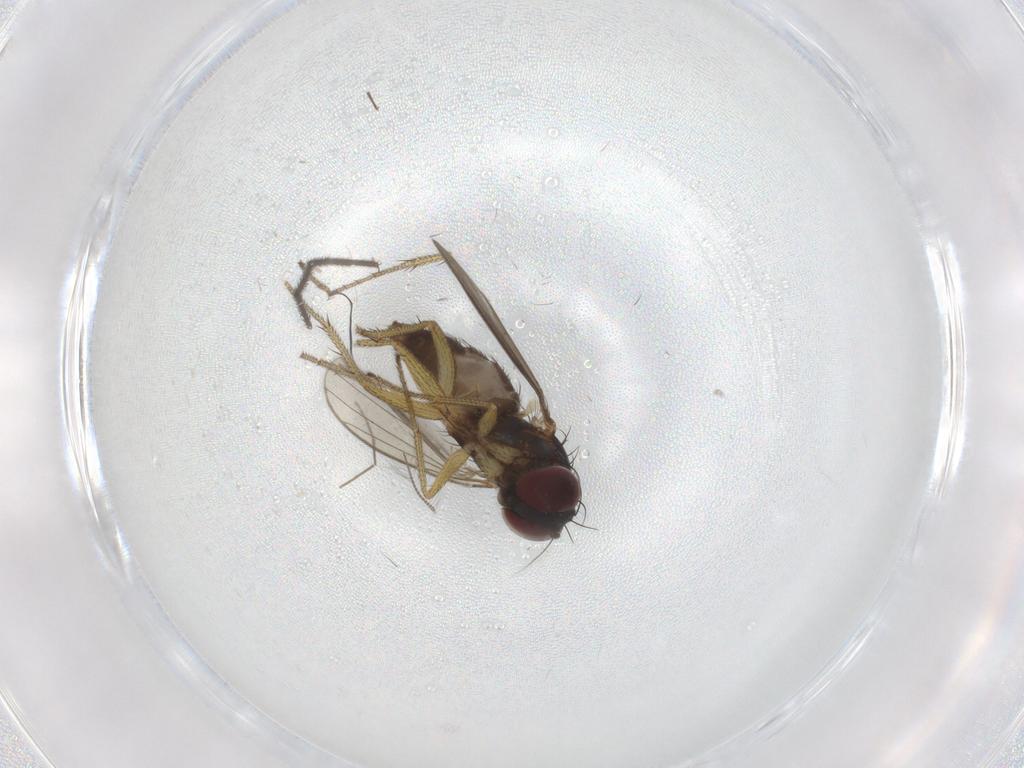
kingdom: Animalia
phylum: Arthropoda
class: Insecta
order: Diptera
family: Limoniidae
